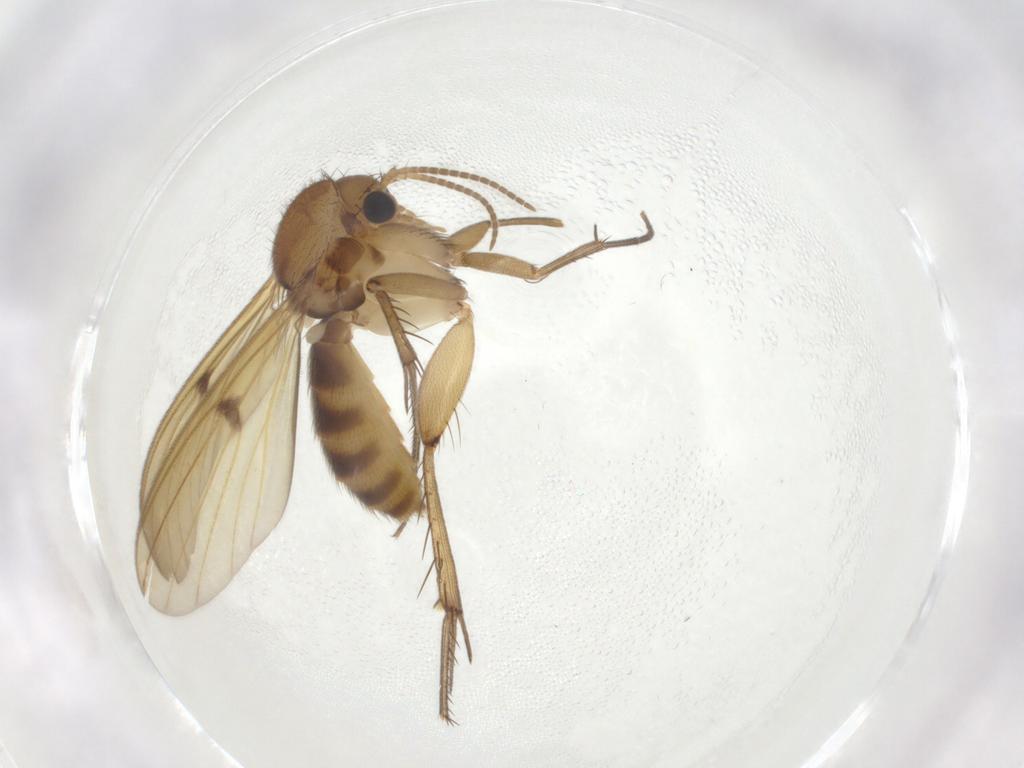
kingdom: Animalia
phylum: Arthropoda
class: Insecta
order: Diptera
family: Mycetophilidae
